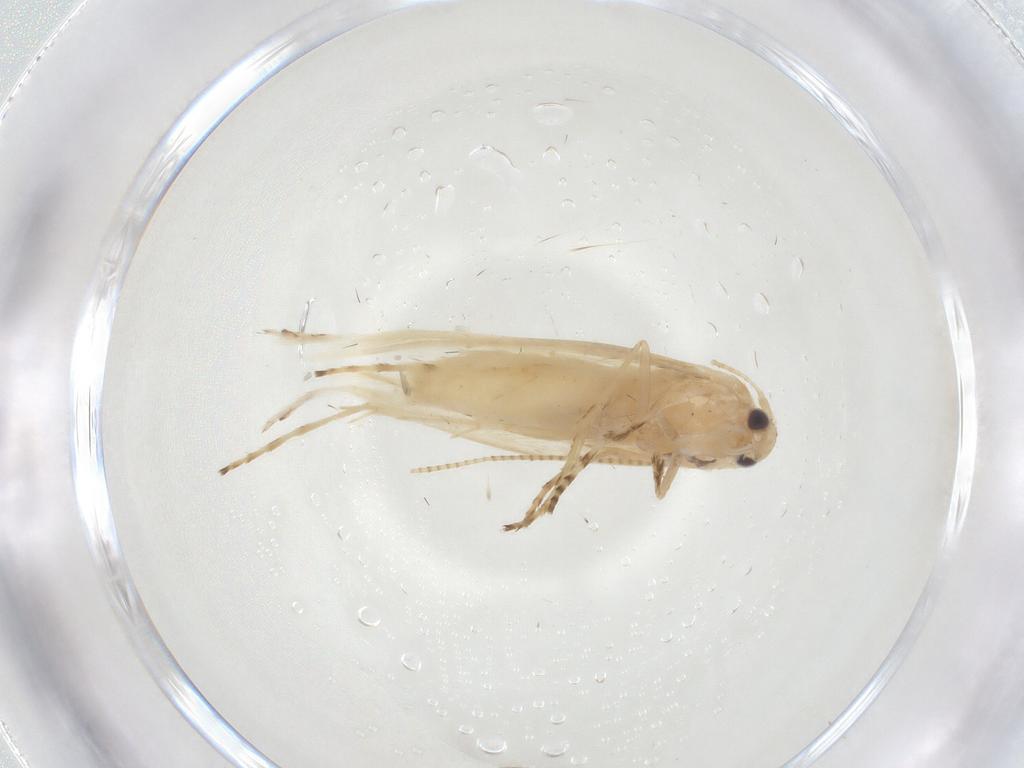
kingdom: Animalia
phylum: Arthropoda
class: Insecta
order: Lepidoptera
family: Gracillariidae
